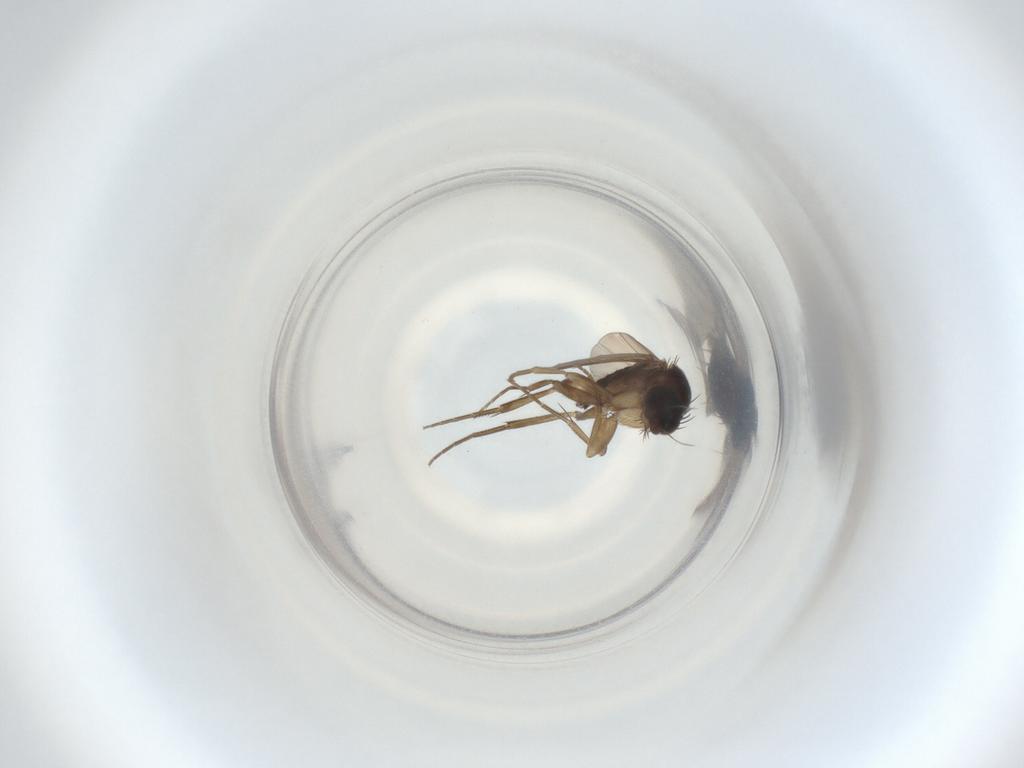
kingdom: Animalia
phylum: Arthropoda
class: Insecta
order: Diptera
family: Phoridae
